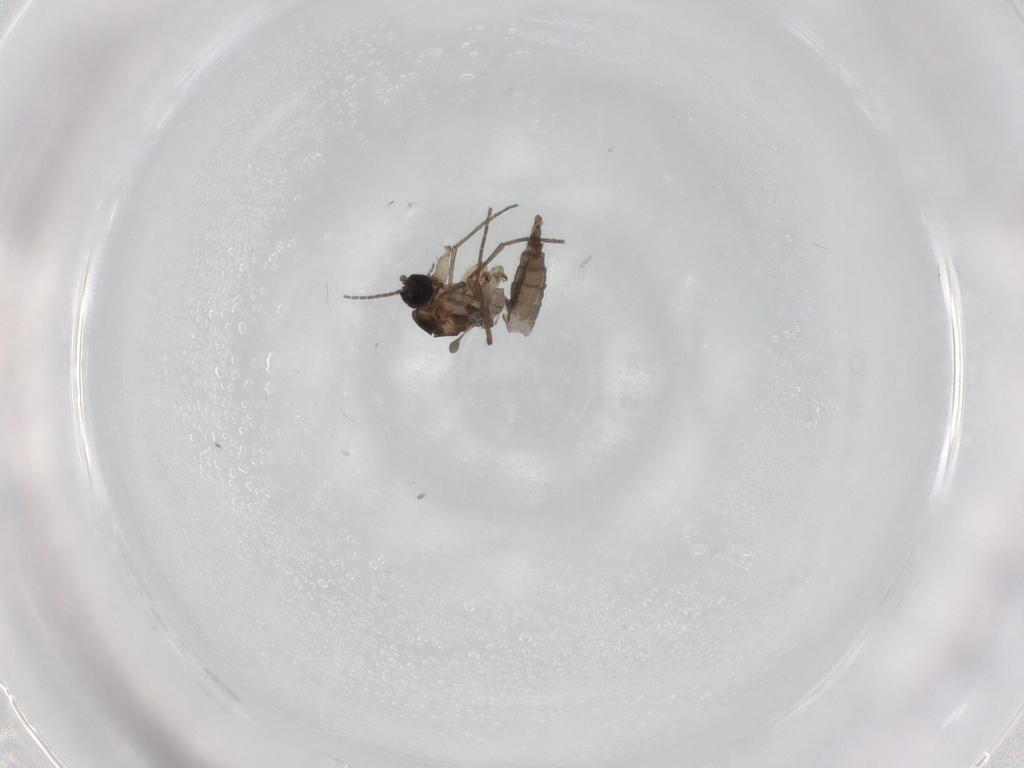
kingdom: Animalia
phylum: Arthropoda
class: Insecta
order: Diptera
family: Sciaridae
